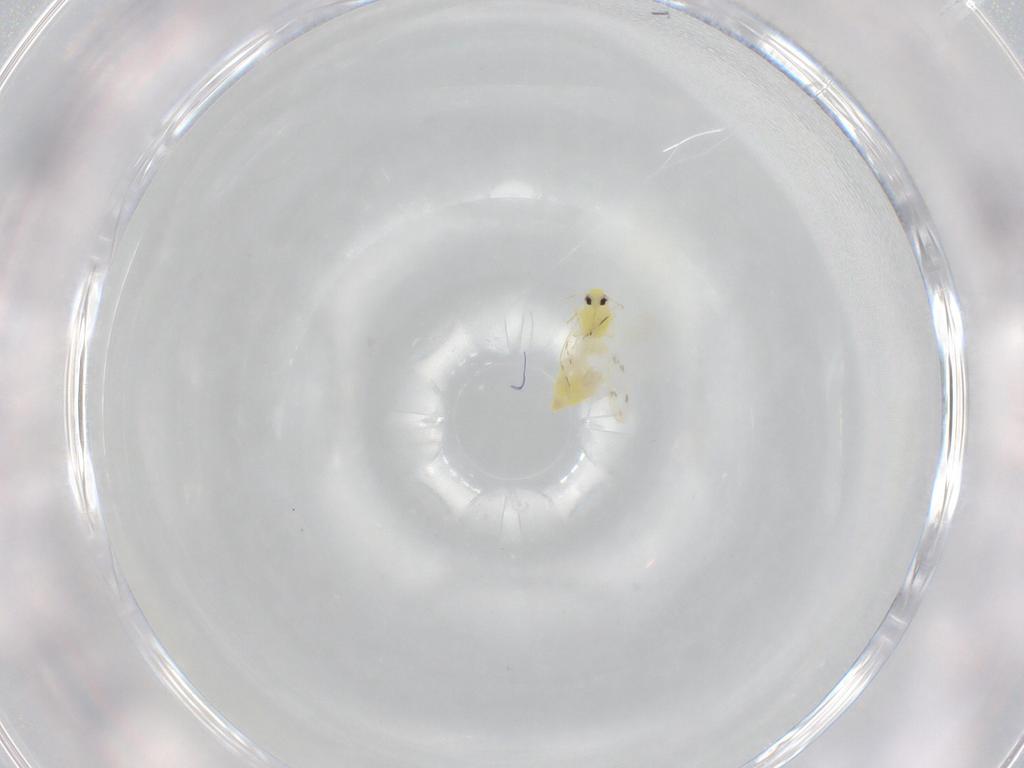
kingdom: Animalia
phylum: Arthropoda
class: Insecta
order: Hemiptera
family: Aleyrodidae
